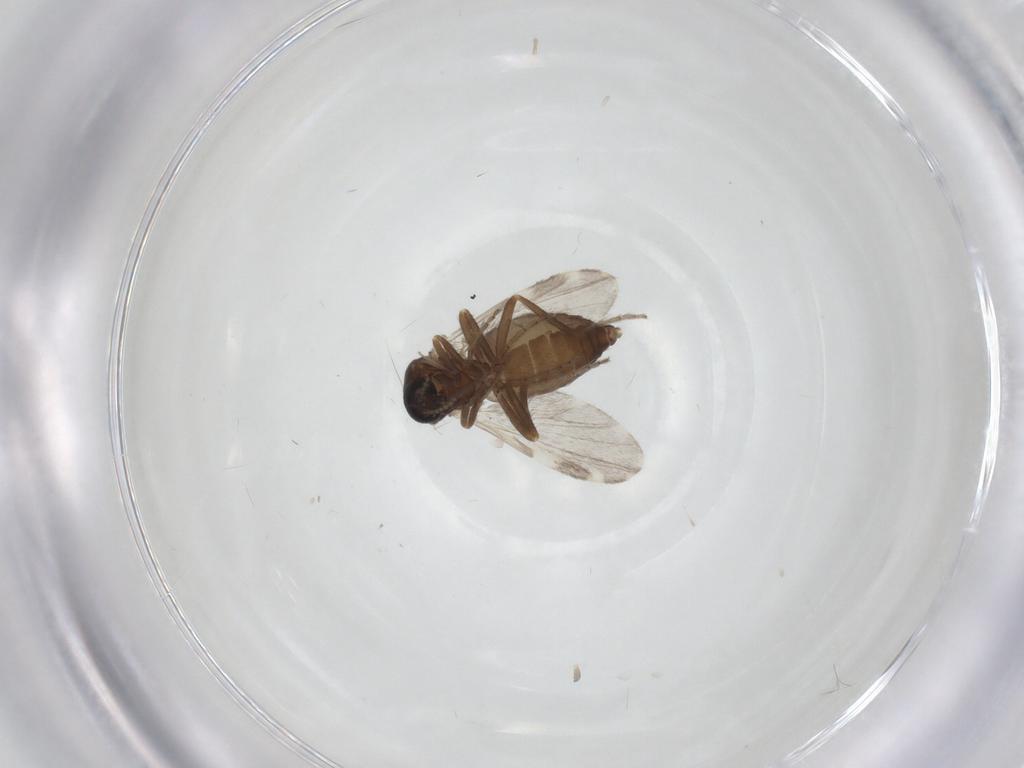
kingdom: Animalia
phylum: Arthropoda
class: Insecta
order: Diptera
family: Ceratopogonidae
